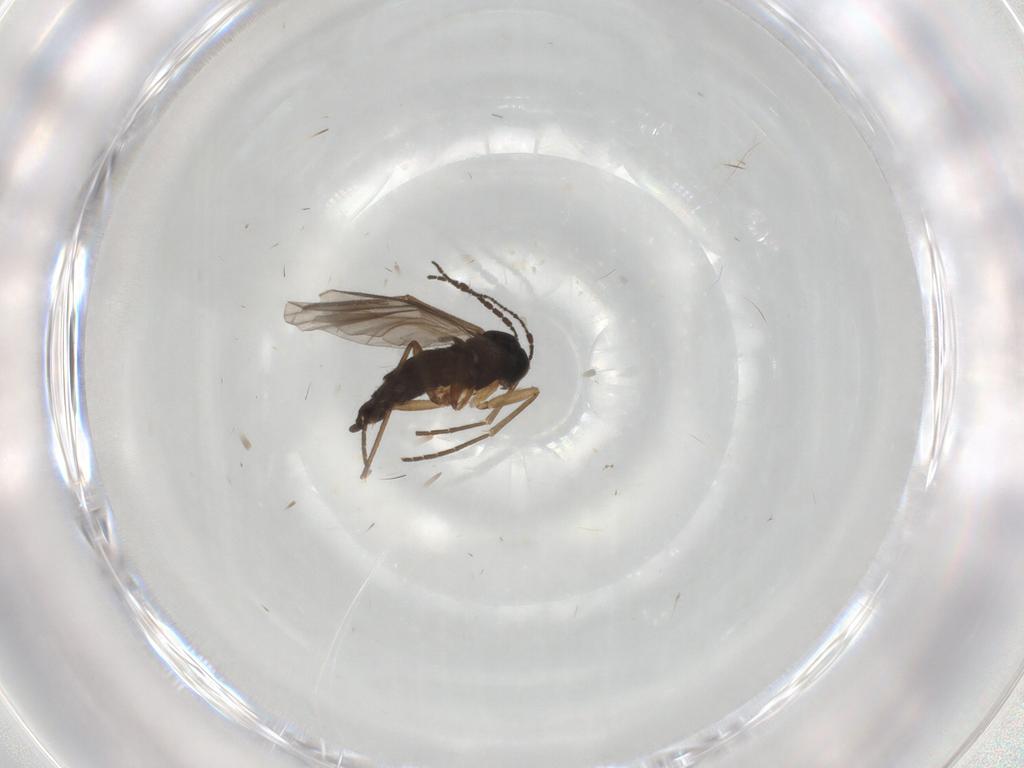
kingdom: Animalia
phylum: Arthropoda
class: Insecta
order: Diptera
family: Sciaridae
